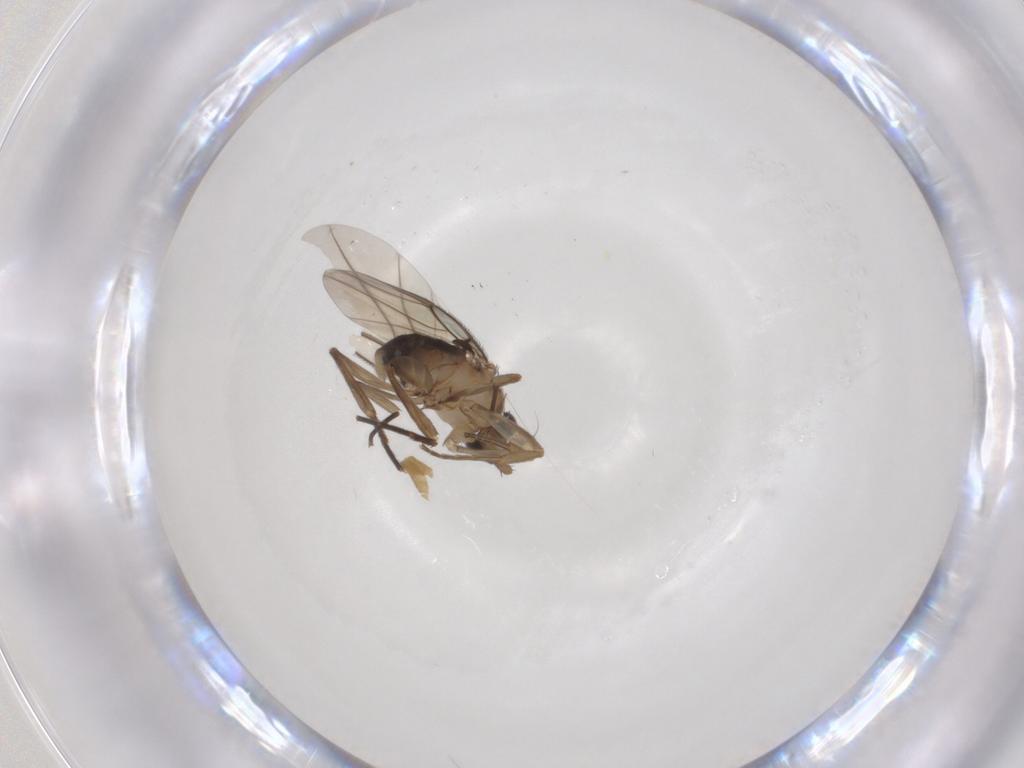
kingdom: Animalia
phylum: Arthropoda
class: Insecta
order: Diptera
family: Phoridae
